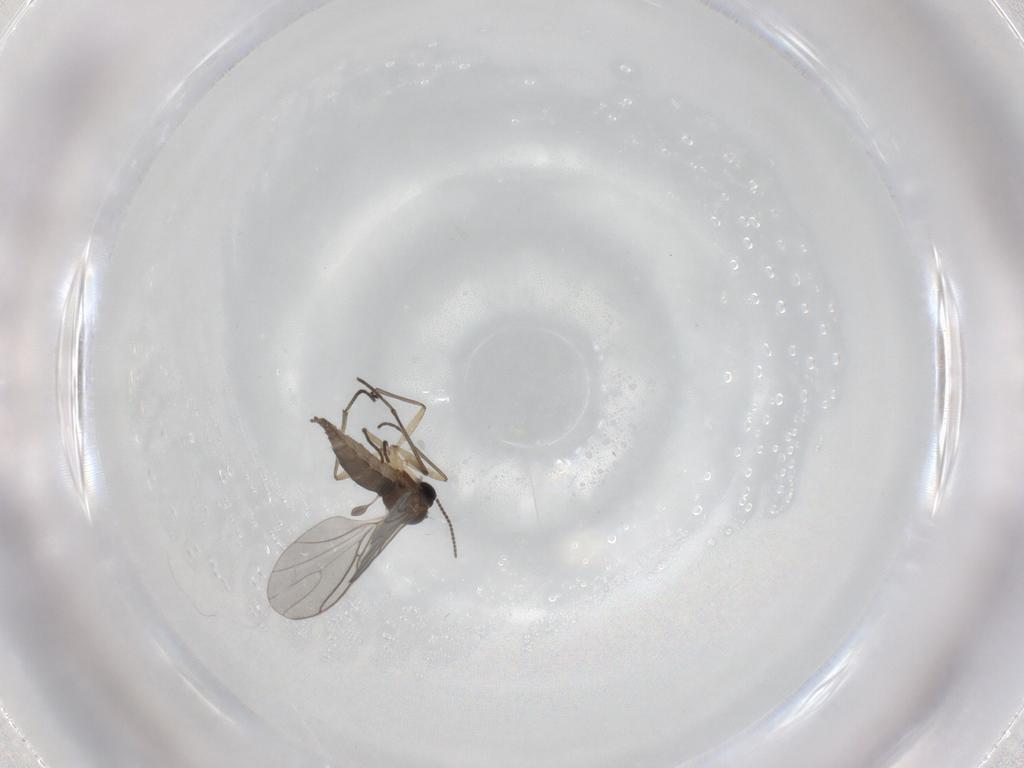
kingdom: Animalia
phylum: Arthropoda
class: Insecta
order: Diptera
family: Sciaridae
